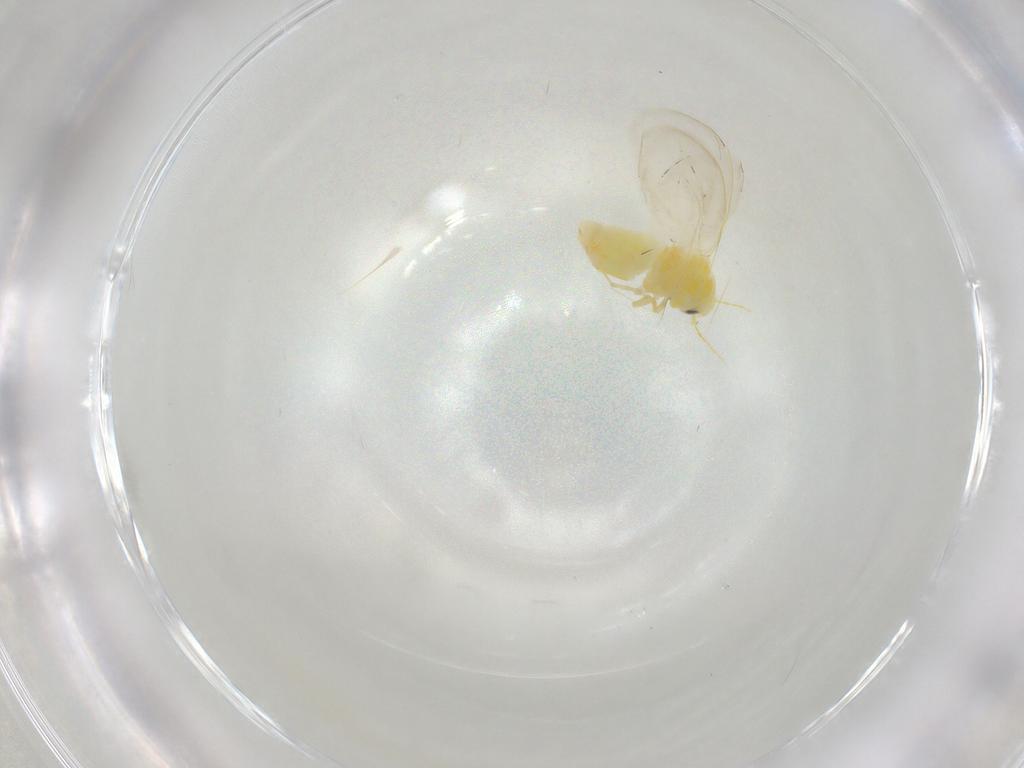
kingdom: Animalia
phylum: Arthropoda
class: Insecta
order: Hemiptera
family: Aleyrodidae
